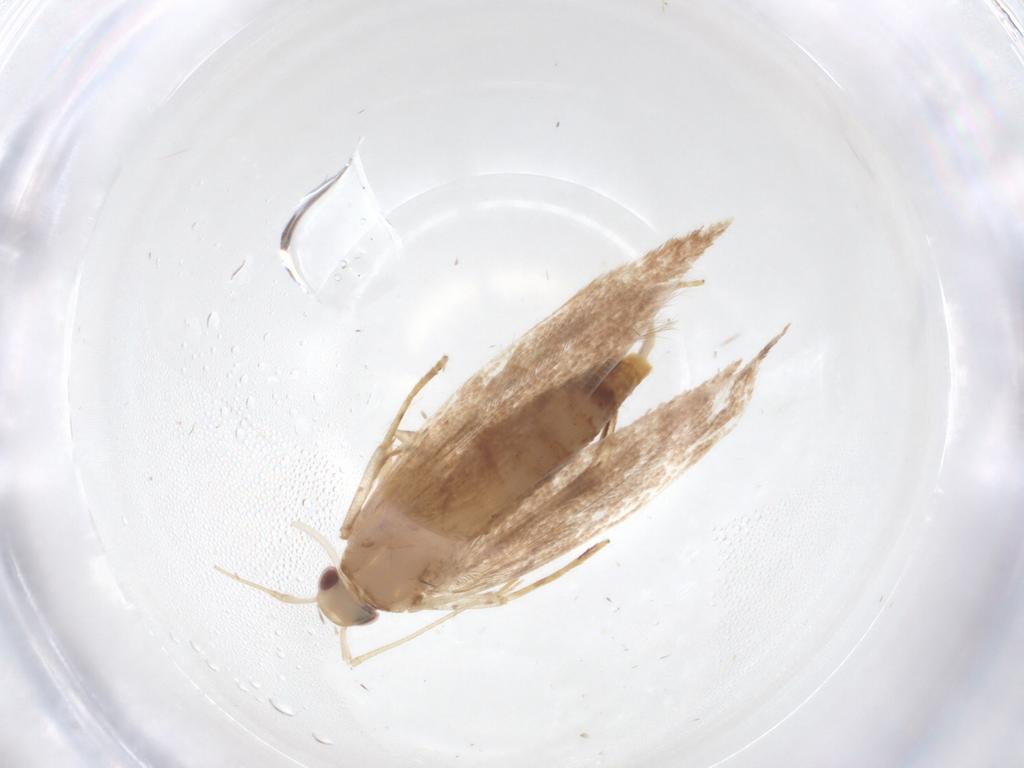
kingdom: Animalia
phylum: Arthropoda
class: Insecta
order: Lepidoptera
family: Cosmopterigidae
